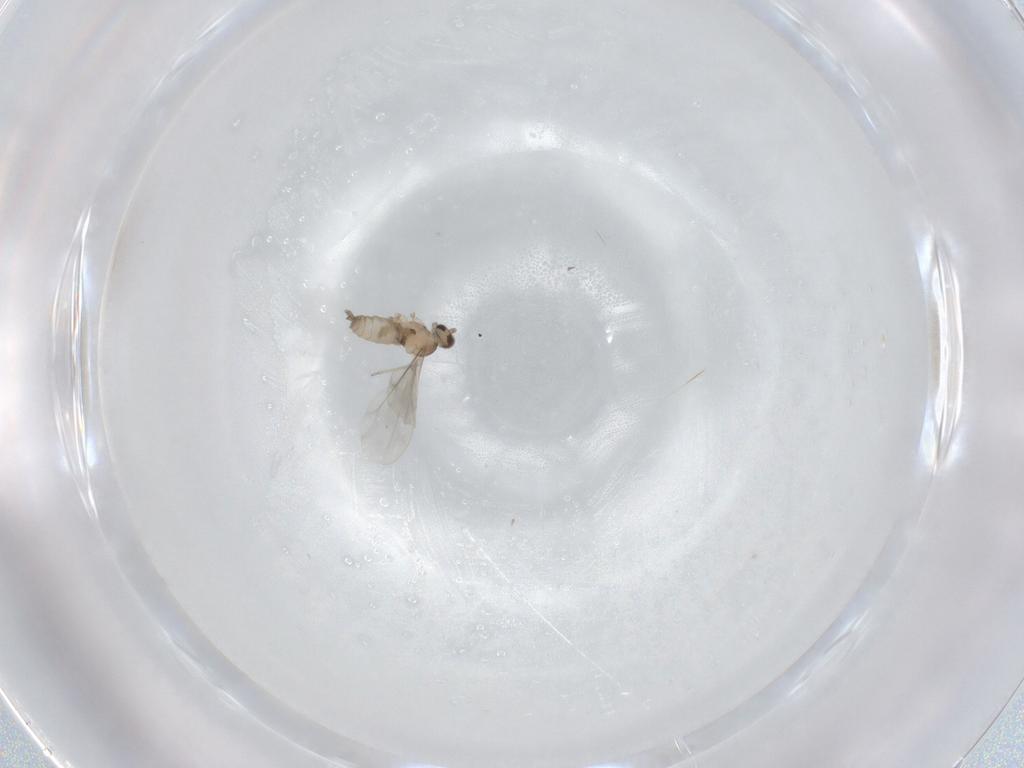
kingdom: Animalia
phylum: Arthropoda
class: Insecta
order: Diptera
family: Cecidomyiidae
